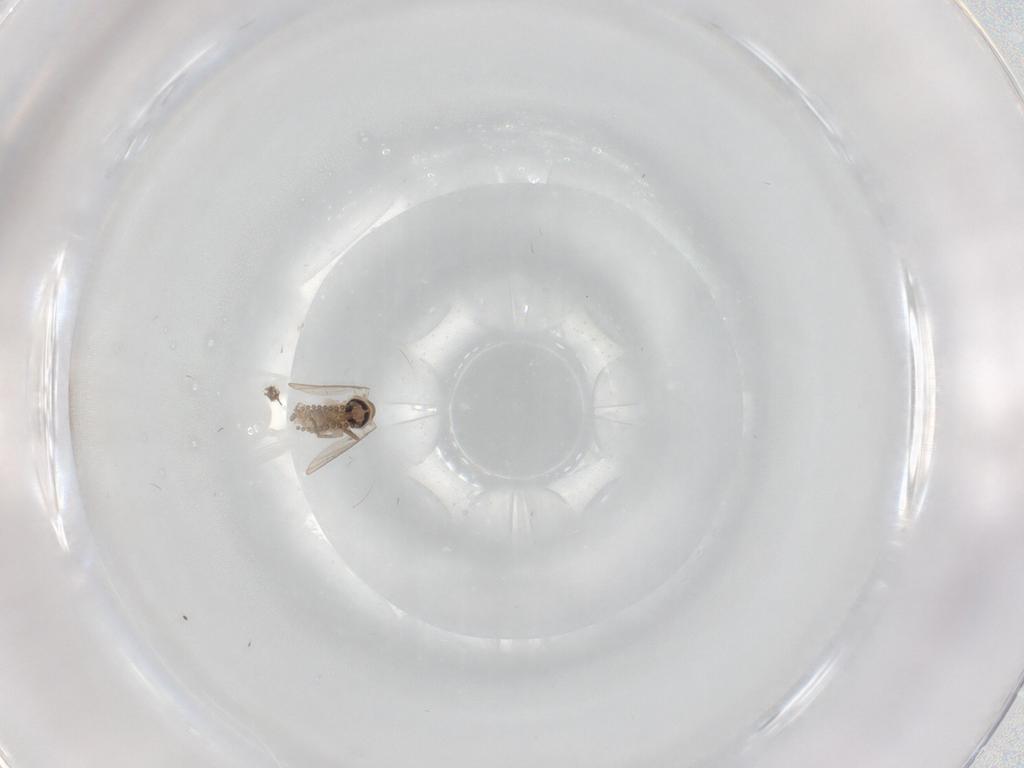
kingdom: Animalia
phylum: Arthropoda
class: Insecta
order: Diptera
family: Psychodidae
